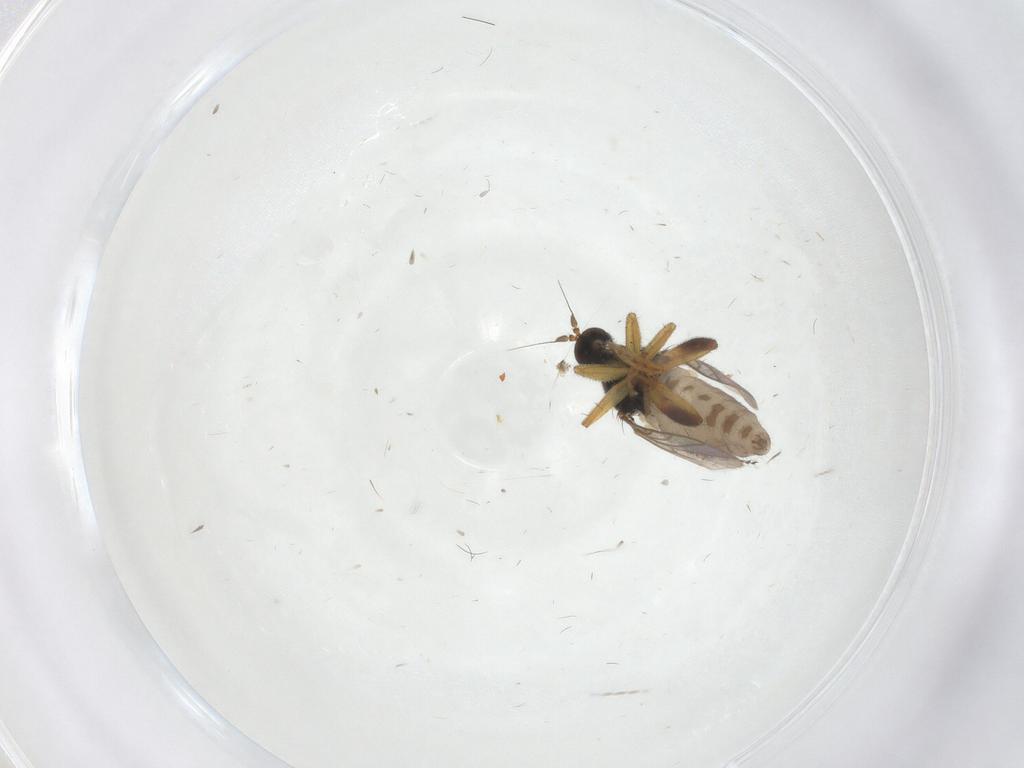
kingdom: Animalia
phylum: Arthropoda
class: Insecta
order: Diptera
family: Hybotidae
